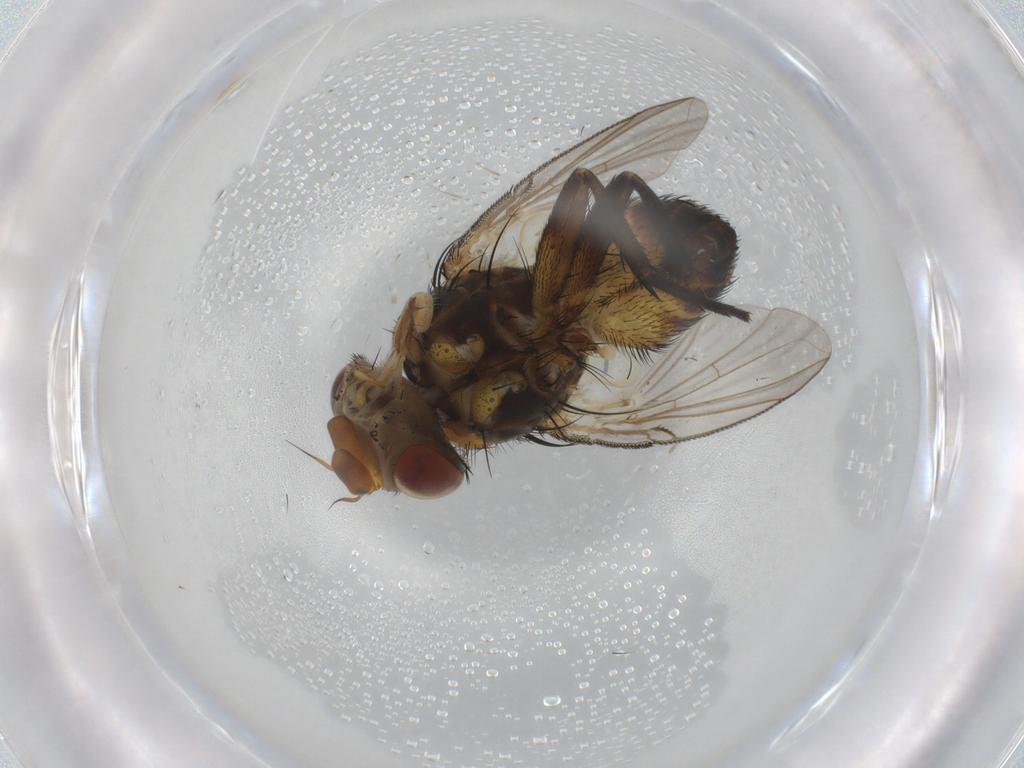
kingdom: Animalia
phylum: Arthropoda
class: Insecta
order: Diptera
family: Tachinidae
